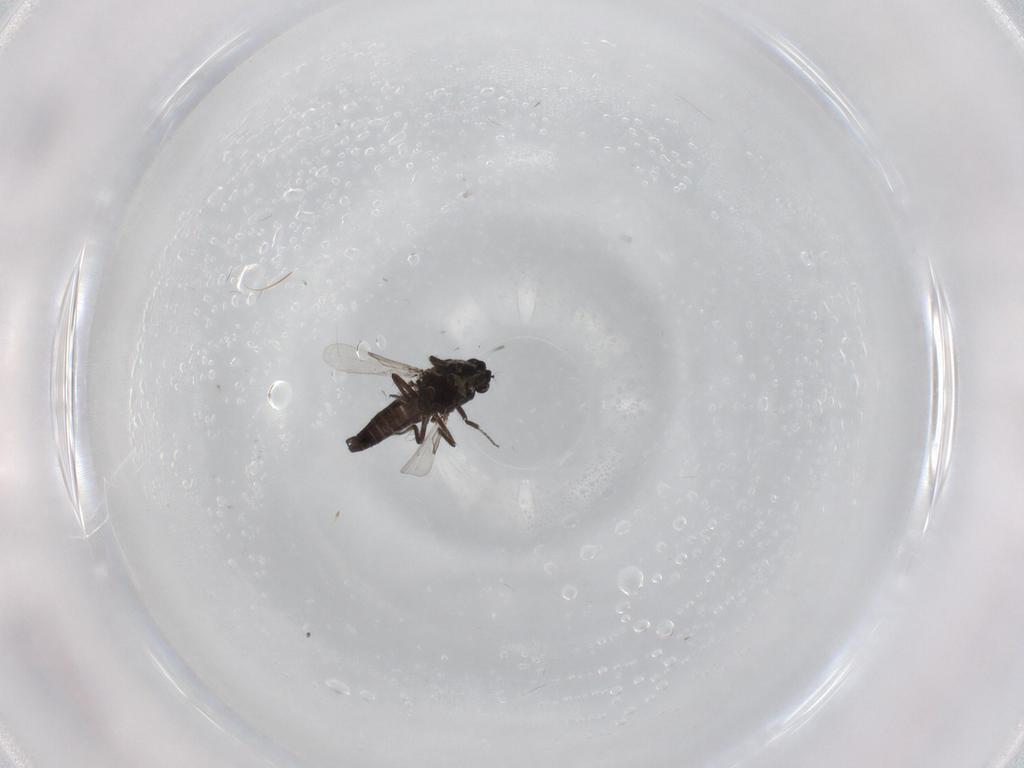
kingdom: Animalia
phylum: Arthropoda
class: Insecta
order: Diptera
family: Ceratopogonidae
